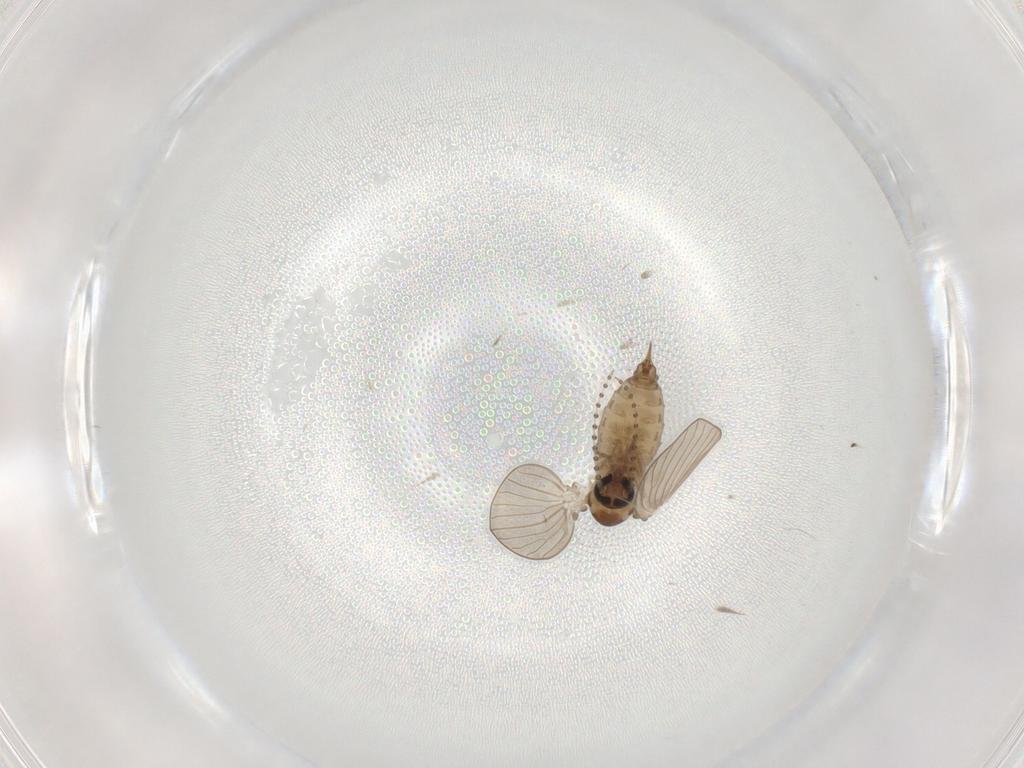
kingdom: Animalia
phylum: Arthropoda
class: Insecta
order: Diptera
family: Psychodidae
